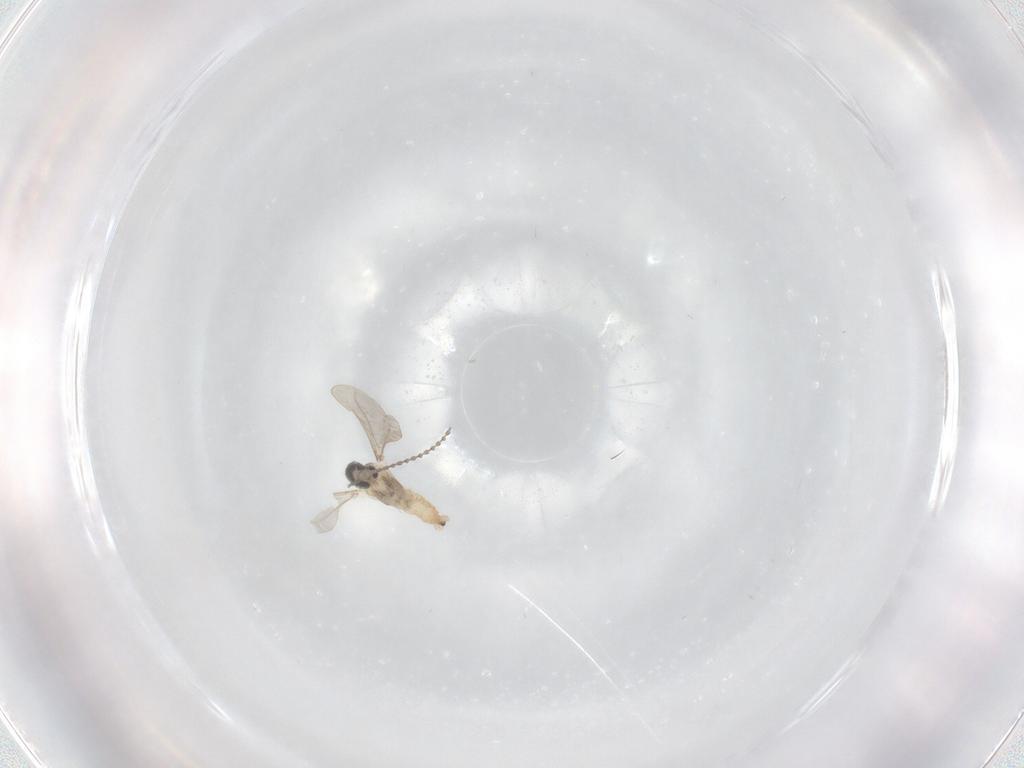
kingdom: Animalia
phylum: Arthropoda
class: Insecta
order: Diptera
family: Cecidomyiidae
